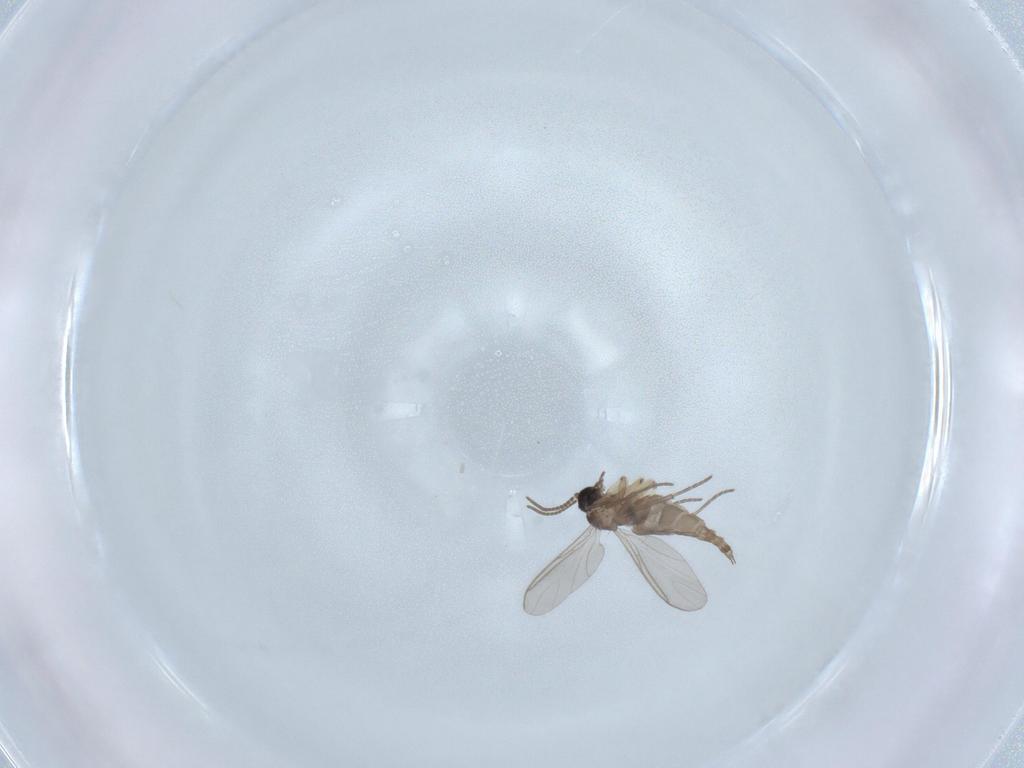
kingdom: Animalia
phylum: Arthropoda
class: Insecta
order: Diptera
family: Sciaridae
